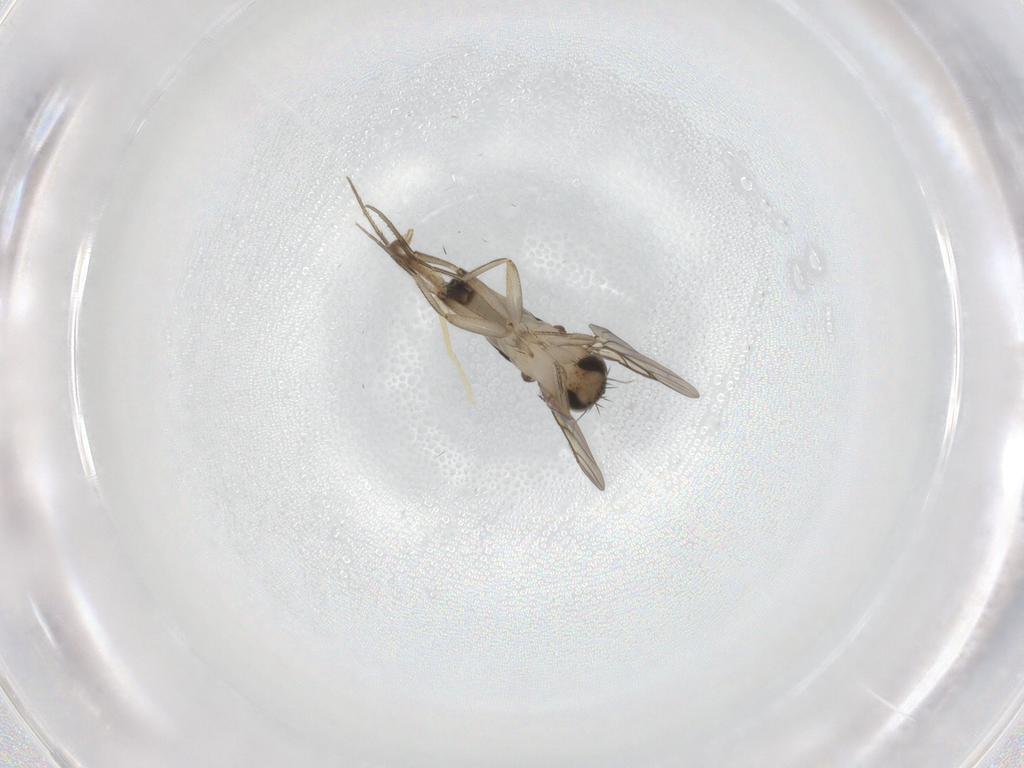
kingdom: Animalia
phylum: Arthropoda
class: Insecta
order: Diptera
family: Phoridae
